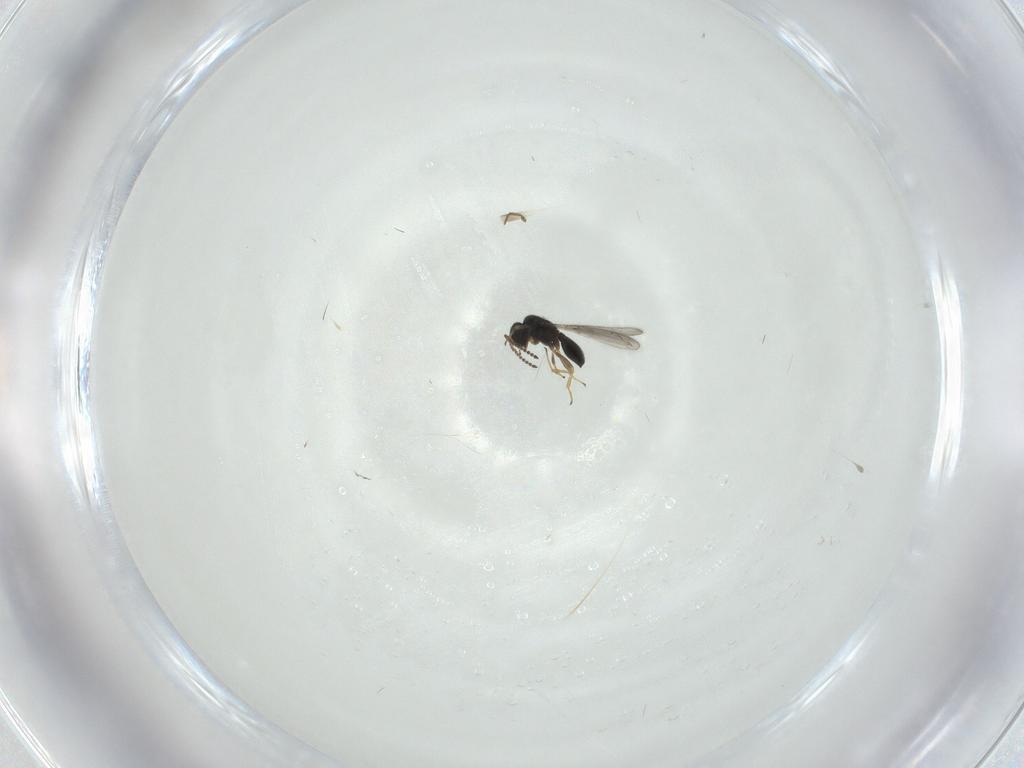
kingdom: Animalia
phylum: Arthropoda
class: Insecta
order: Hymenoptera
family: Scelionidae
